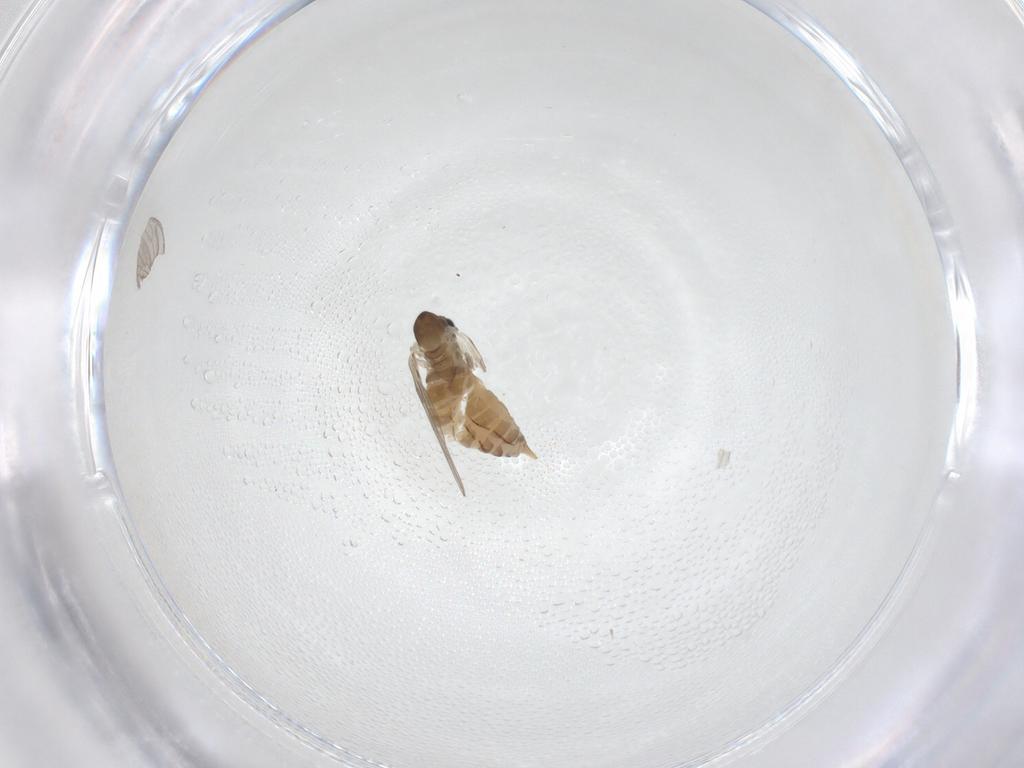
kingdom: Animalia
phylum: Arthropoda
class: Insecta
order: Diptera
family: Psychodidae
